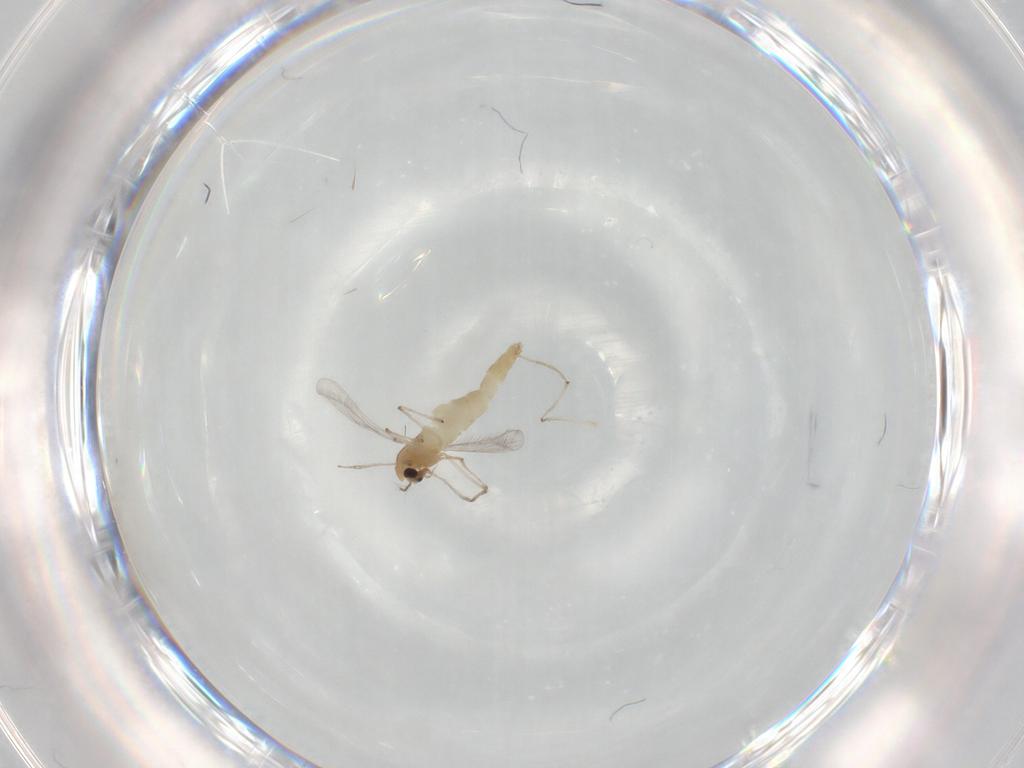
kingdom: Animalia
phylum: Arthropoda
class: Insecta
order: Diptera
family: Chironomidae
